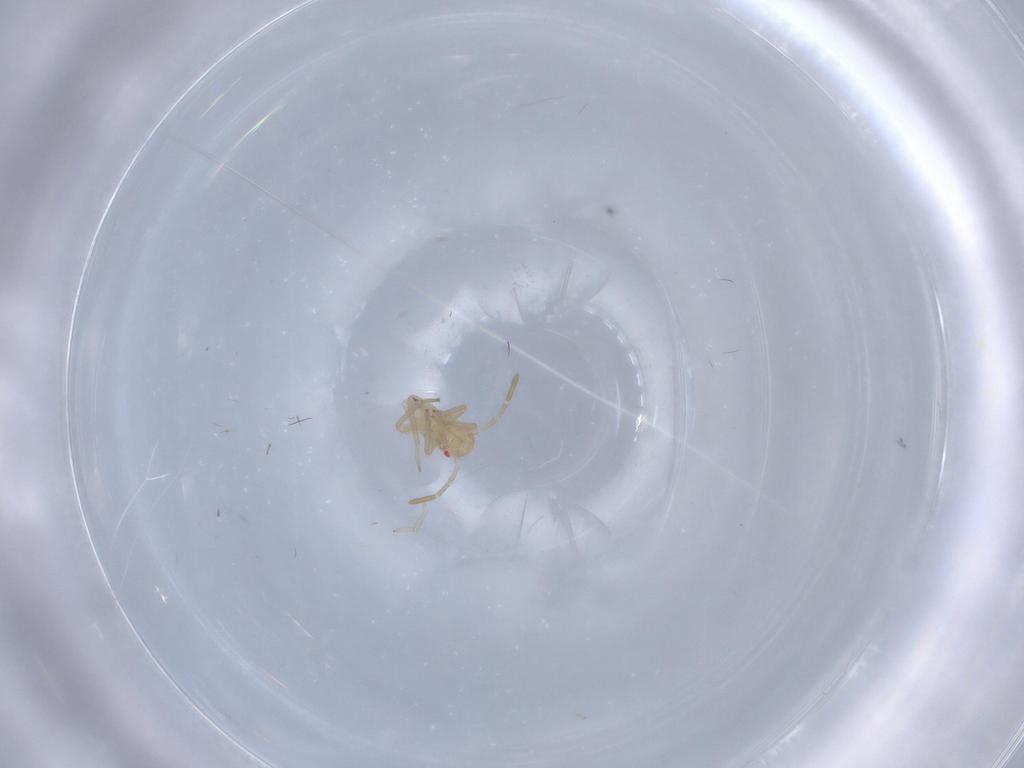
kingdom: Animalia
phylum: Arthropoda
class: Insecta
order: Hemiptera
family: Miridae
